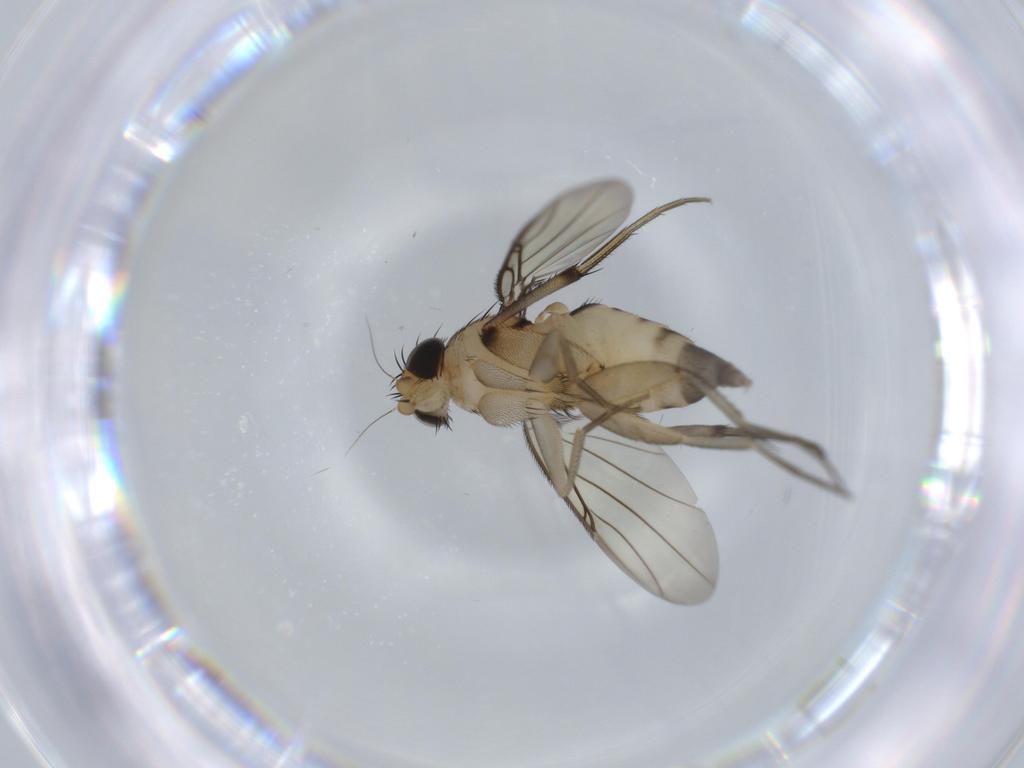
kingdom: Animalia
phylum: Arthropoda
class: Insecta
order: Diptera
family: Phoridae
